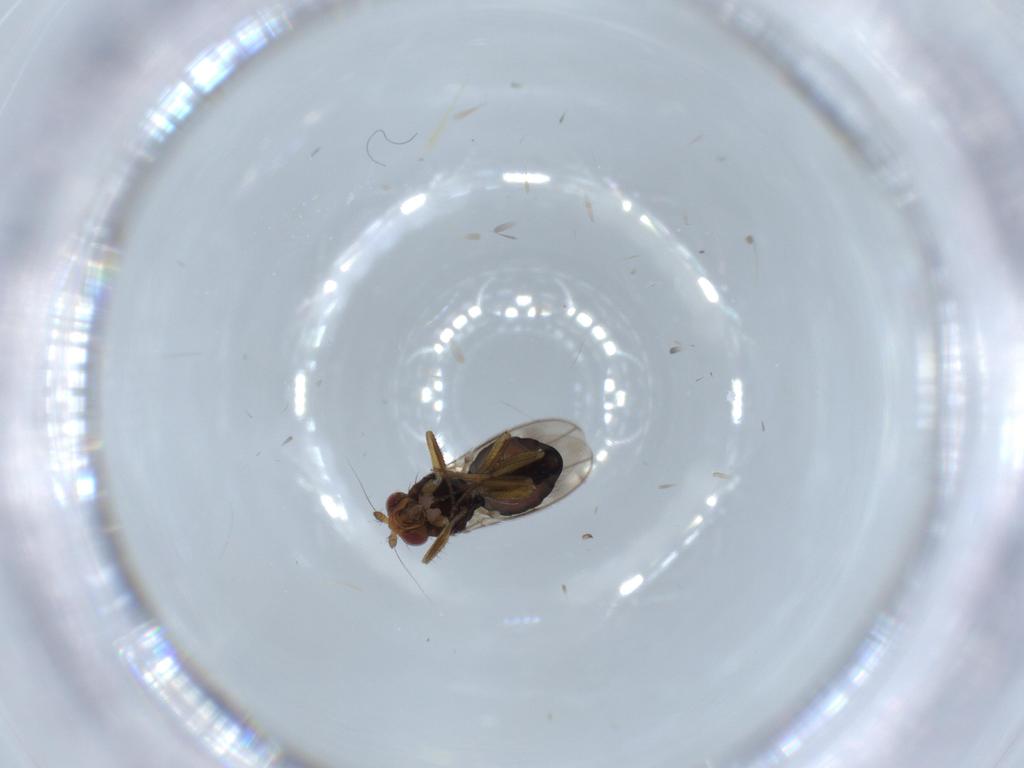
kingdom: Animalia
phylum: Arthropoda
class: Insecta
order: Diptera
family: Sphaeroceridae
